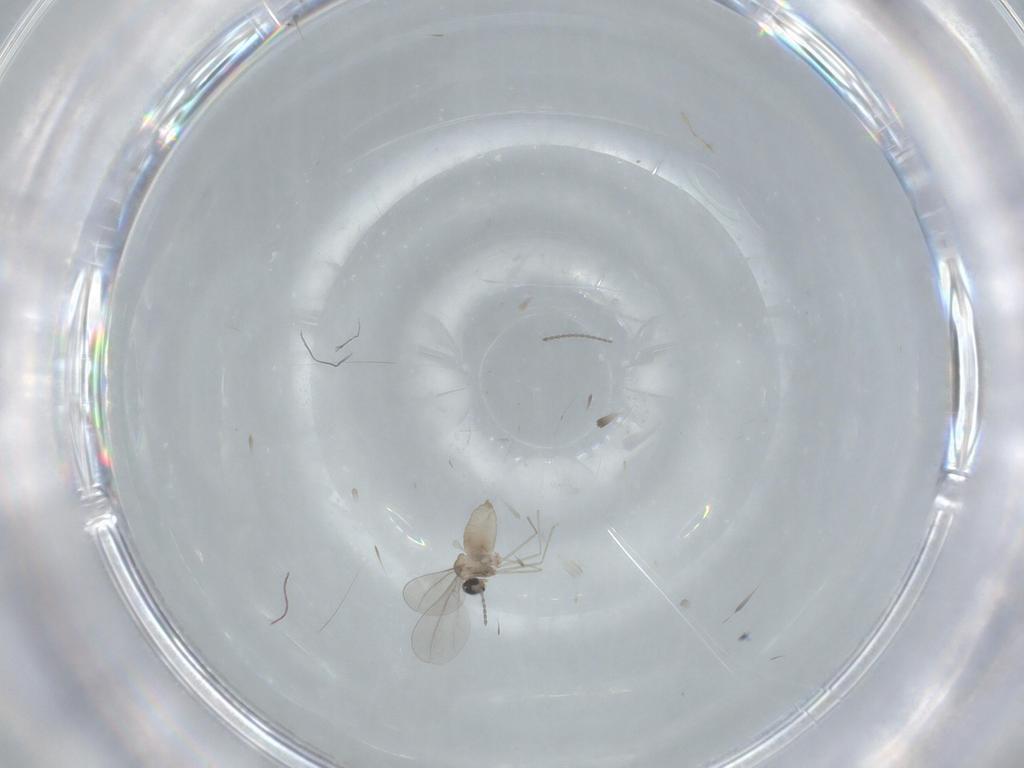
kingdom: Animalia
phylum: Arthropoda
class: Insecta
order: Diptera
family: Cecidomyiidae
